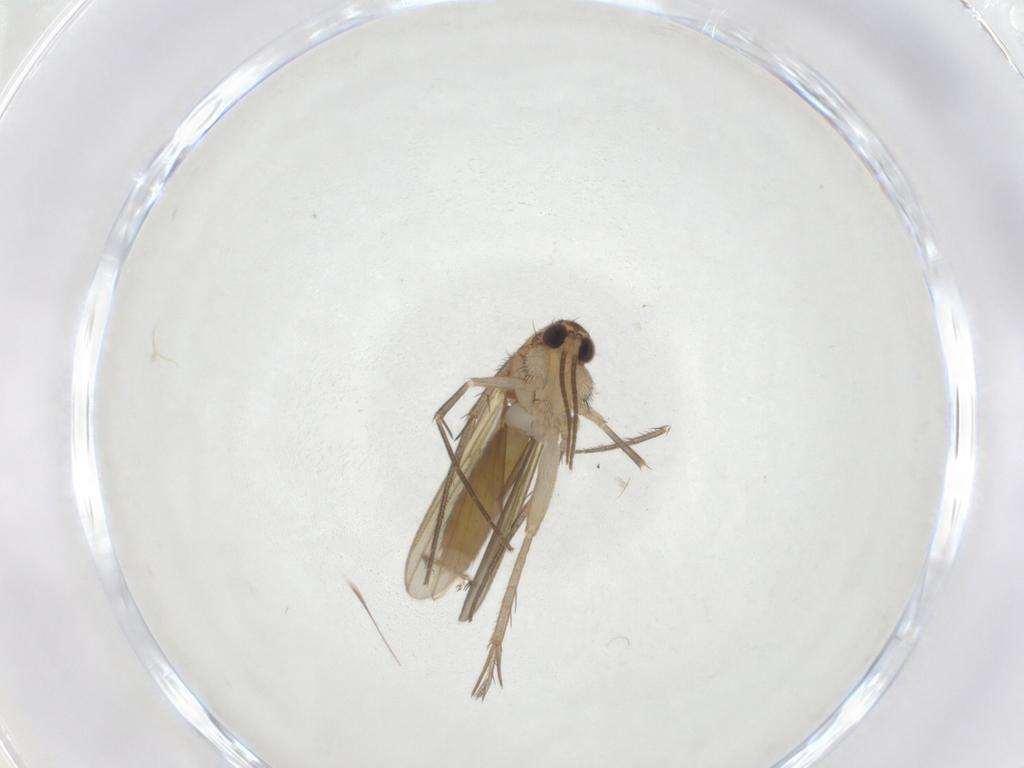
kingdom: Animalia
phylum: Arthropoda
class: Insecta
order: Diptera
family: Mycetophilidae
